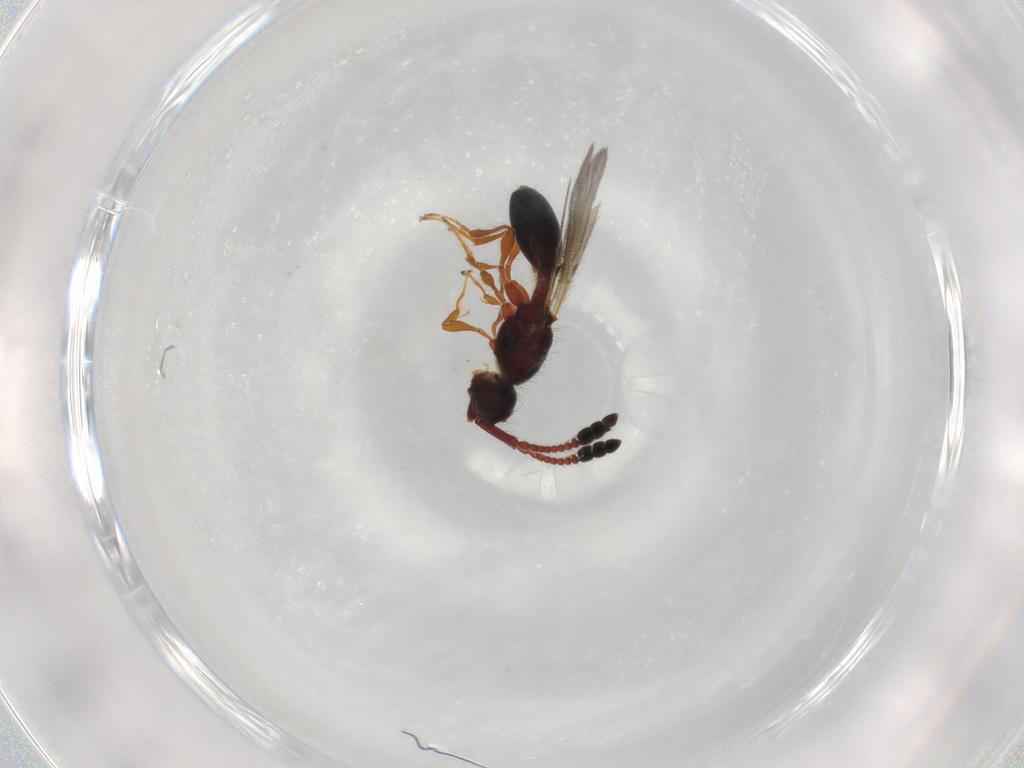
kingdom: Animalia
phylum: Arthropoda
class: Insecta
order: Hymenoptera
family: Diapriidae
